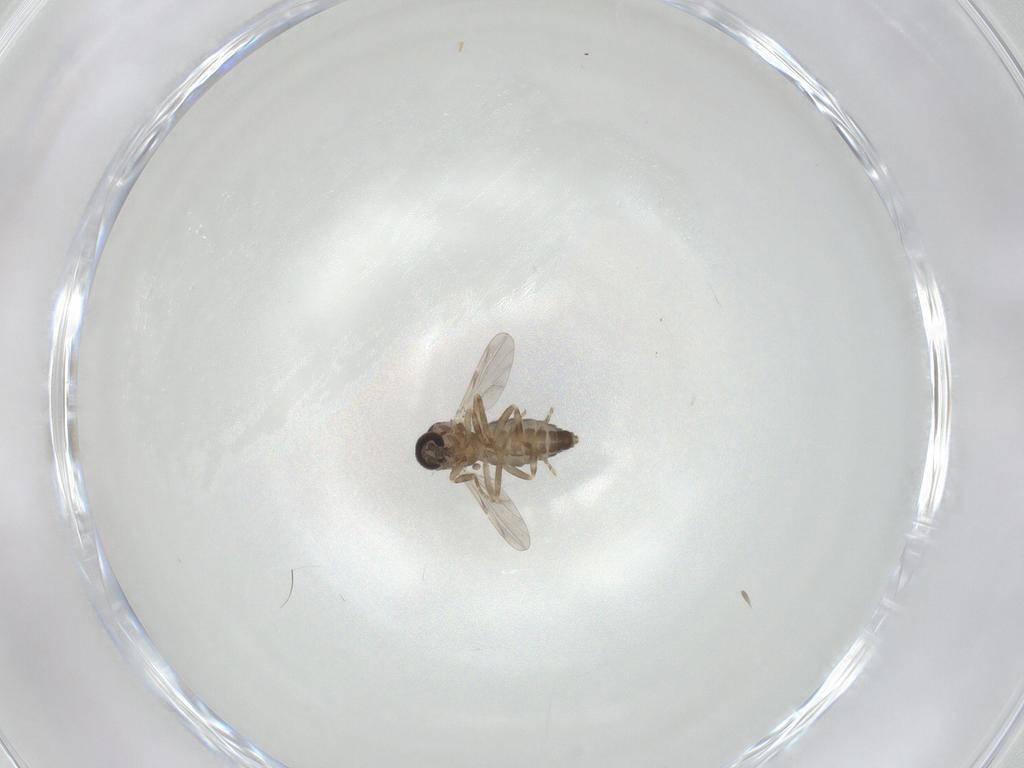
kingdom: Animalia
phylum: Arthropoda
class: Insecta
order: Diptera
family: Ceratopogonidae
